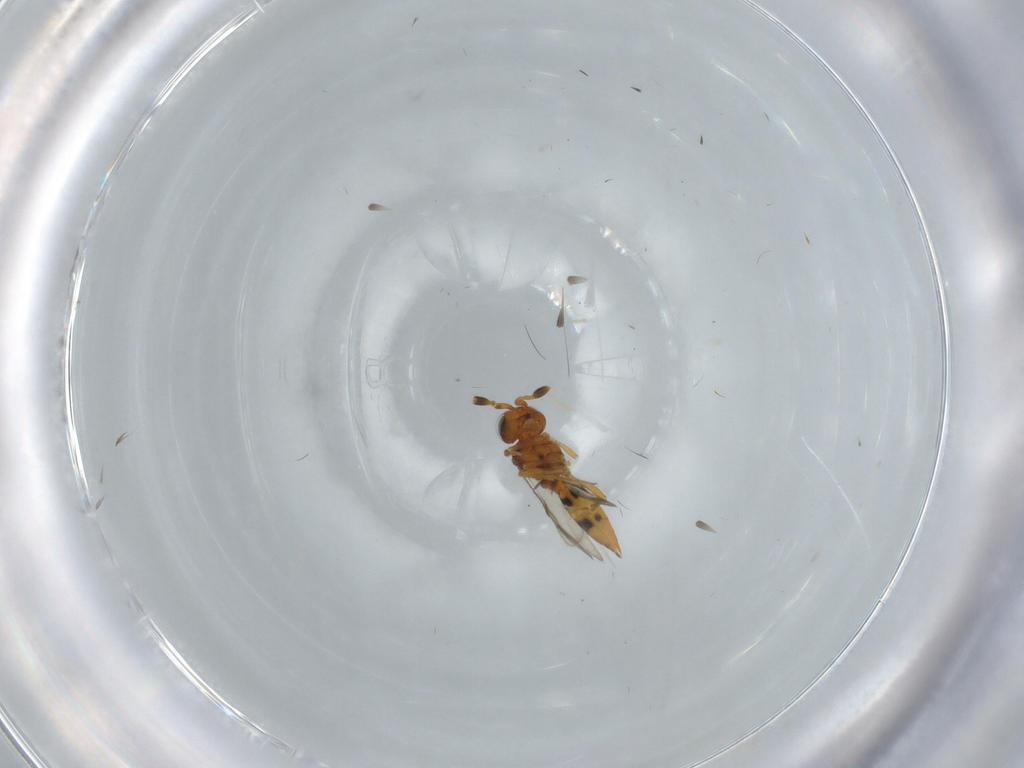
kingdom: Animalia
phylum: Arthropoda
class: Insecta
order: Hymenoptera
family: Scelionidae
